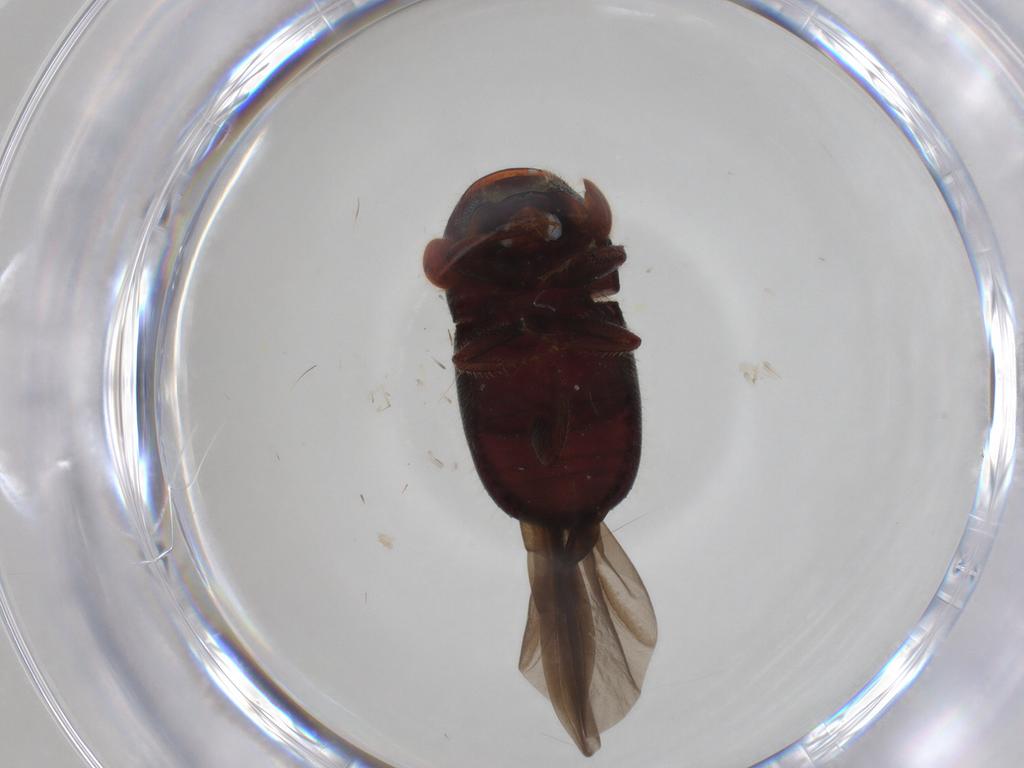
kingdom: Animalia
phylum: Arthropoda
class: Insecta
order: Coleoptera
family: Curculionidae
